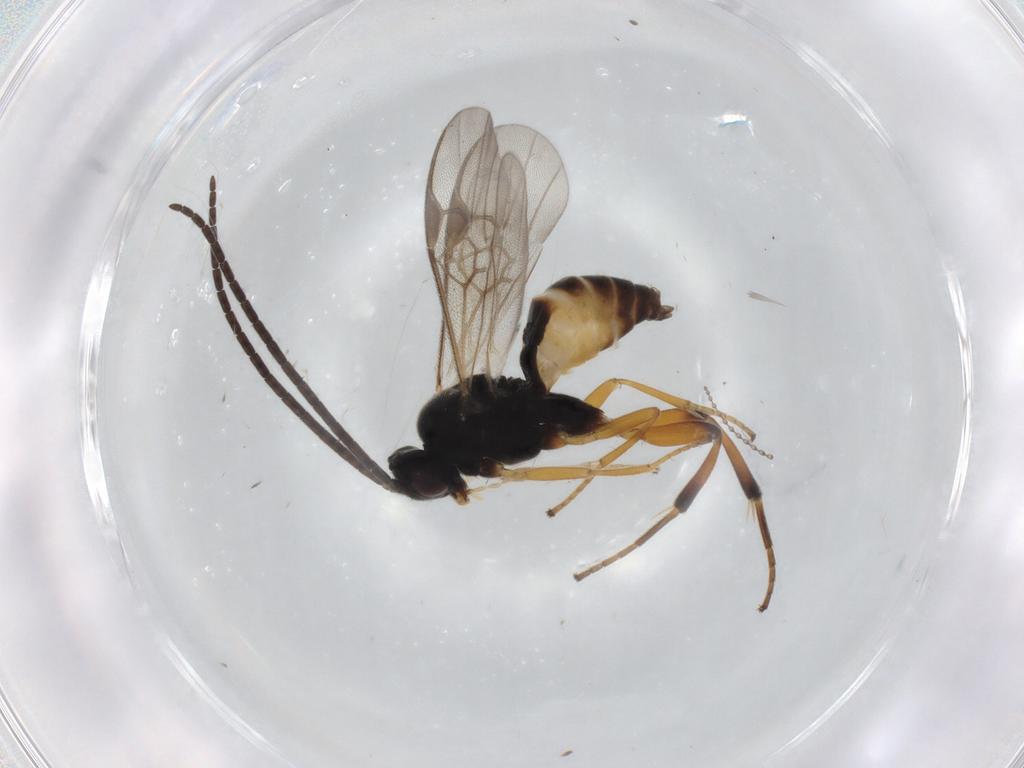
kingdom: Animalia
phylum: Arthropoda
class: Insecta
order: Hymenoptera
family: Braconidae
